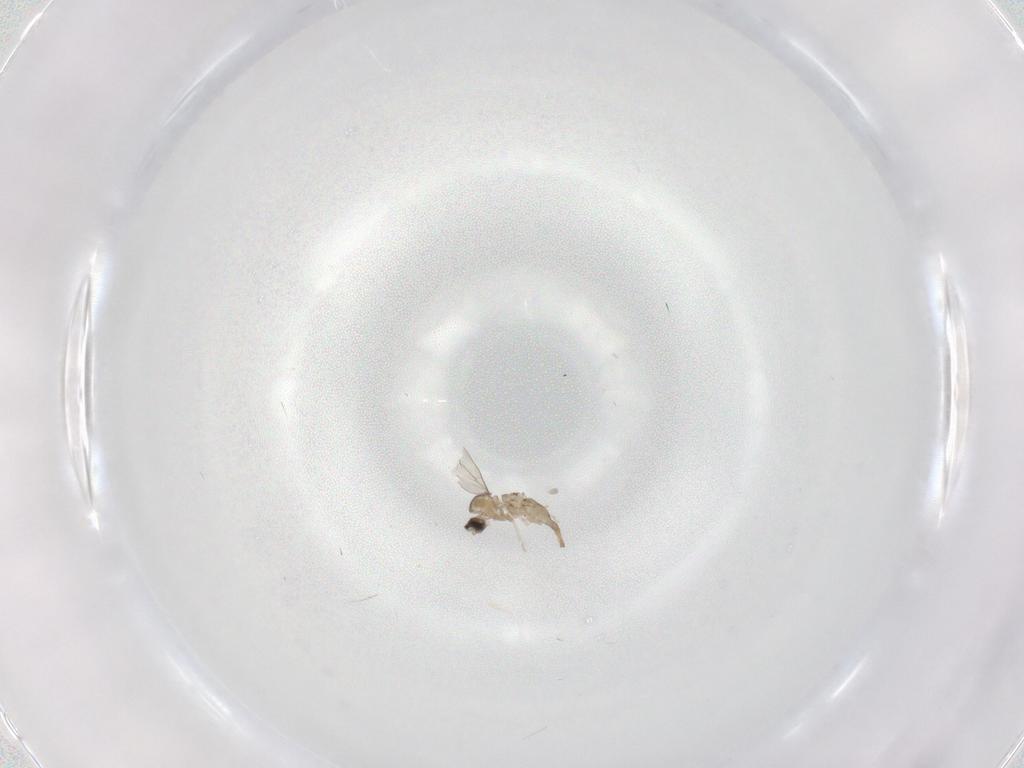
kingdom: Animalia
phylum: Arthropoda
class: Insecta
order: Diptera
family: Cecidomyiidae
